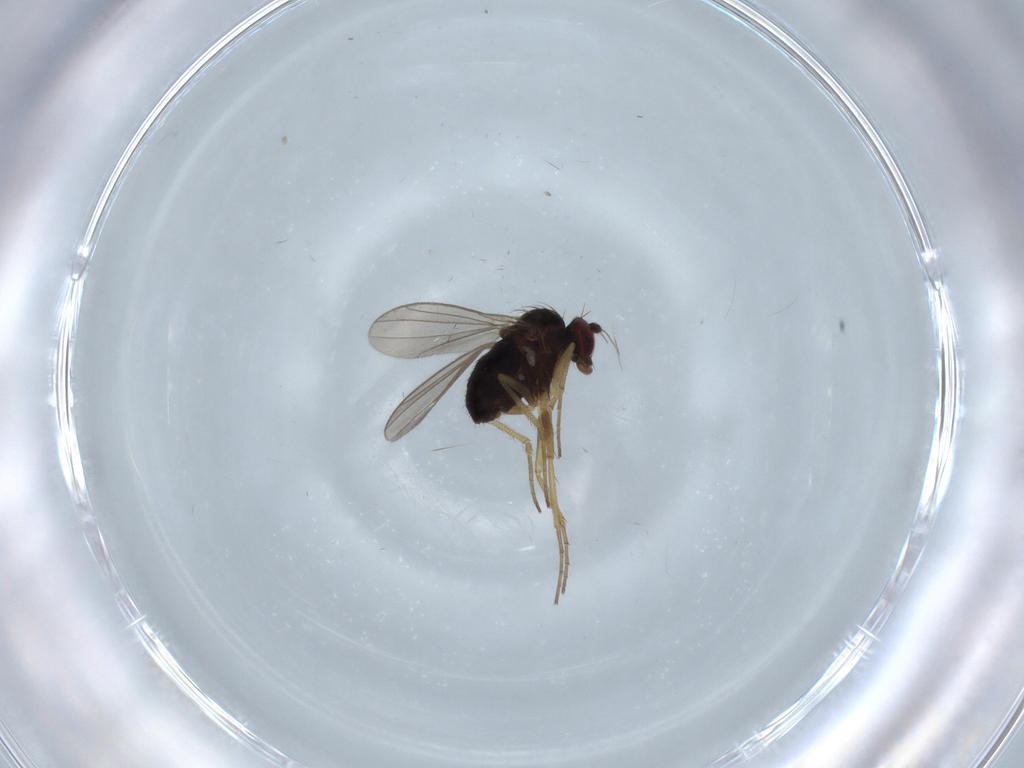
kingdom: Animalia
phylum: Arthropoda
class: Insecta
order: Diptera
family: Dolichopodidae
